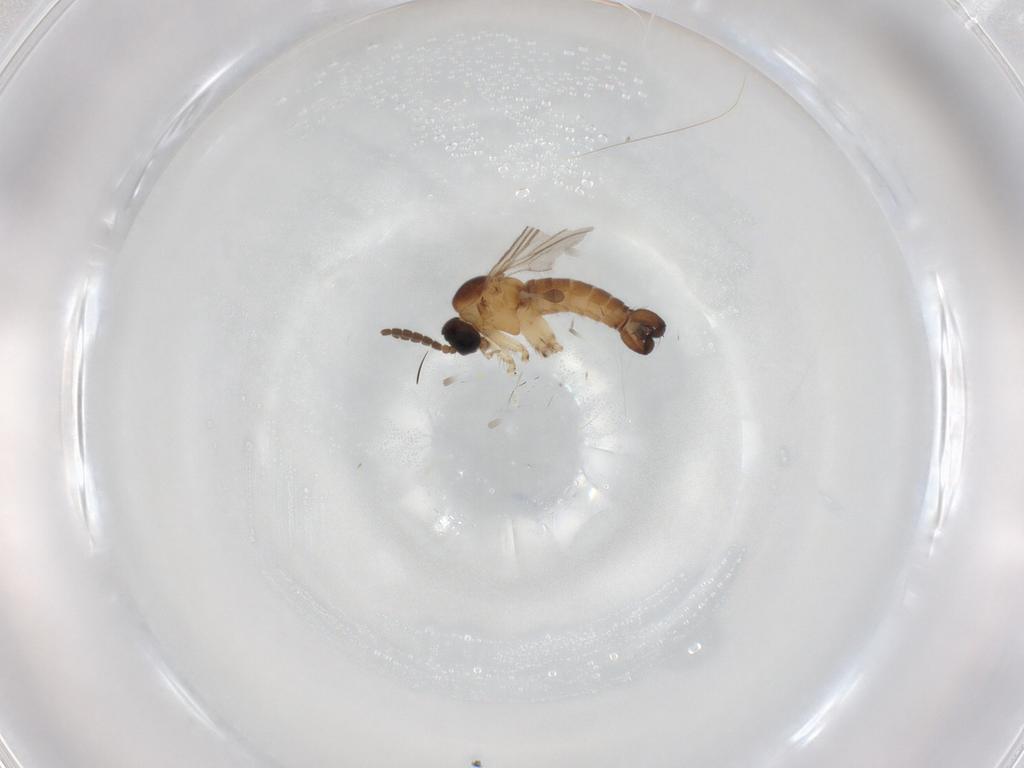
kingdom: Animalia
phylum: Arthropoda
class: Insecta
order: Diptera
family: Sciaridae
